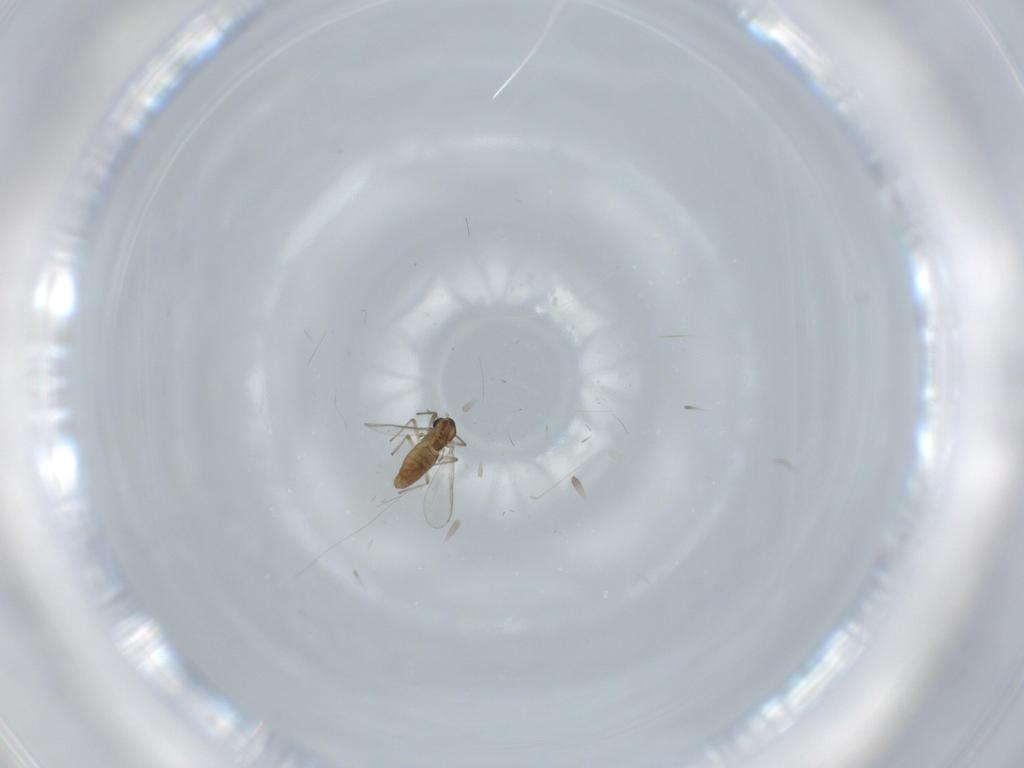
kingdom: Animalia
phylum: Arthropoda
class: Insecta
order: Diptera
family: Chironomidae
